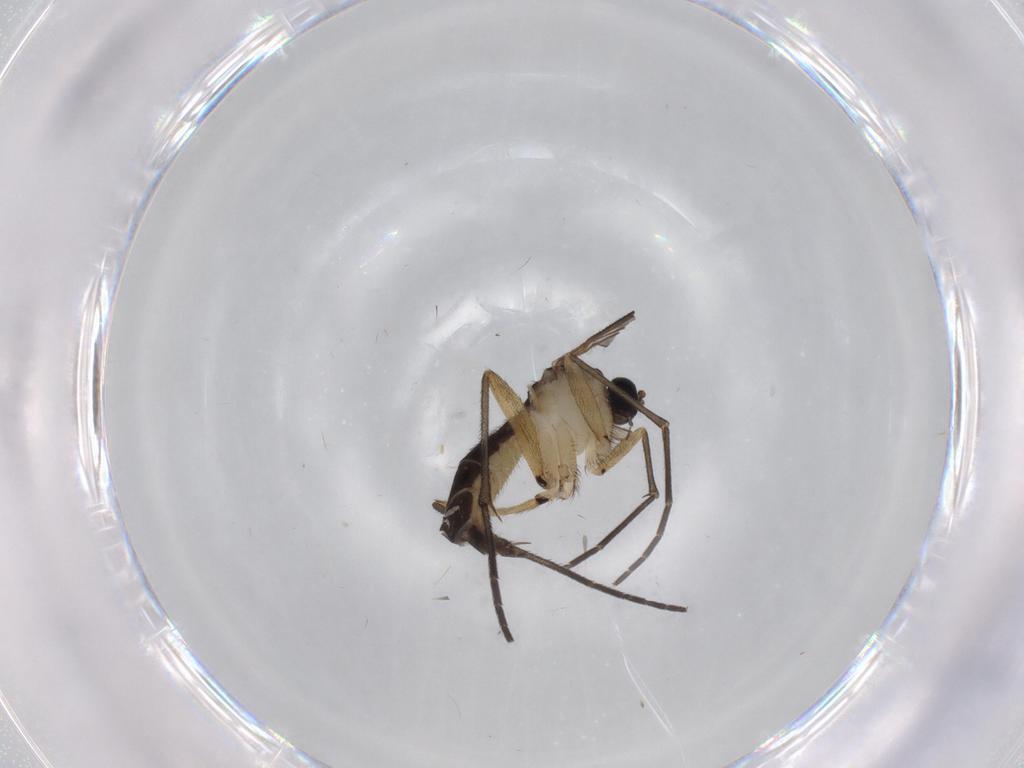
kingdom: Animalia
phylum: Arthropoda
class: Insecta
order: Diptera
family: Sciaridae
